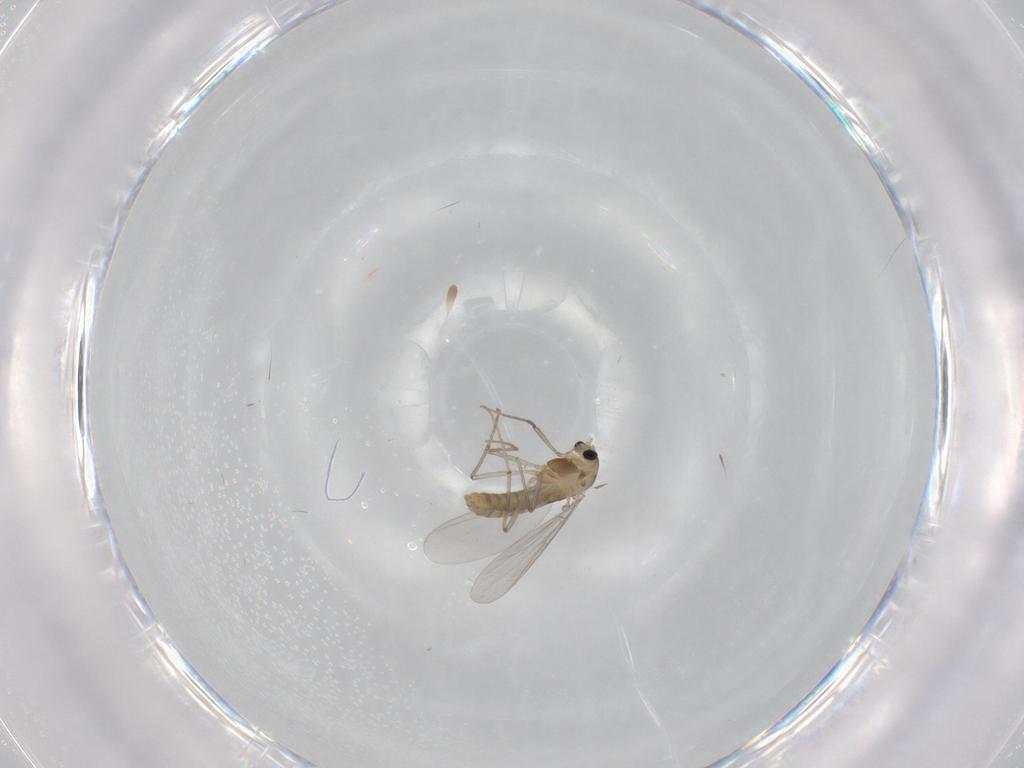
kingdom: Animalia
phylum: Arthropoda
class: Insecta
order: Diptera
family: Chironomidae
